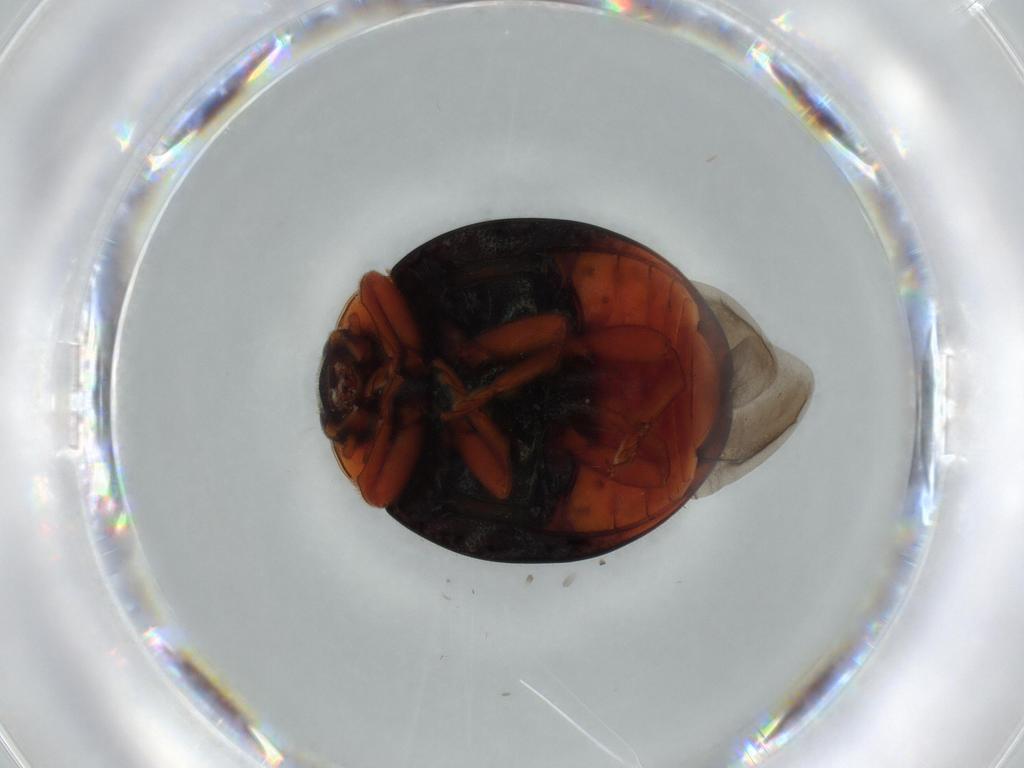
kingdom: Animalia
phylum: Arthropoda
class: Insecta
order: Coleoptera
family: Coccinellidae
